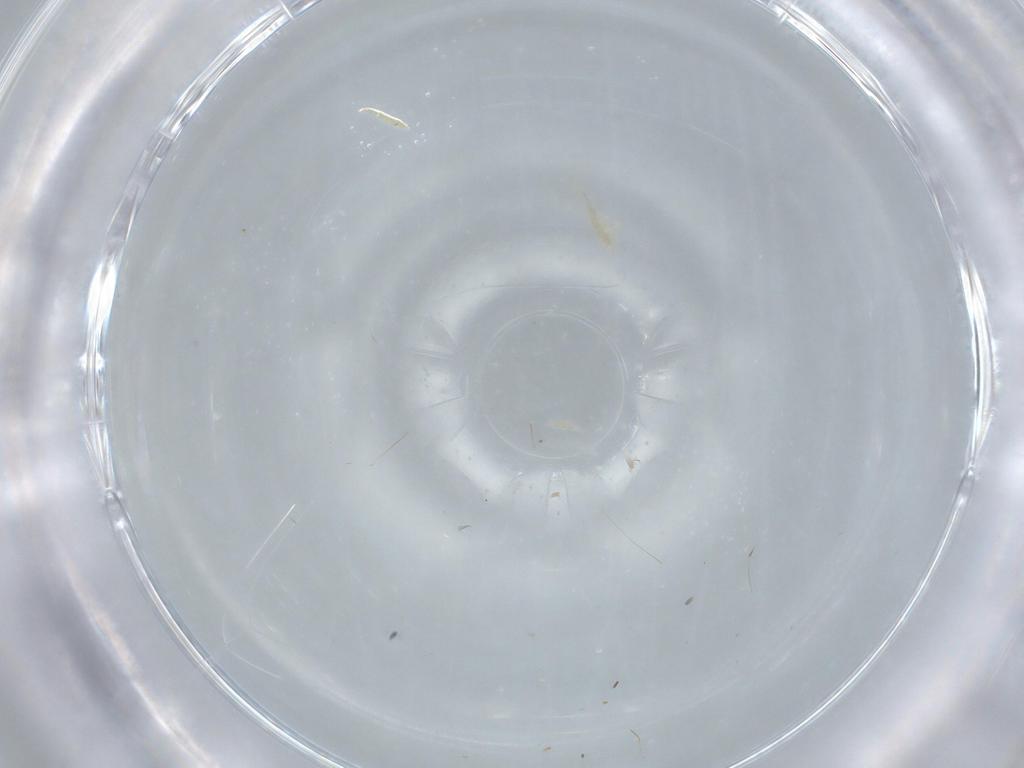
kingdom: Animalia
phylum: Arthropoda
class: Insecta
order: Diptera
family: Cecidomyiidae
